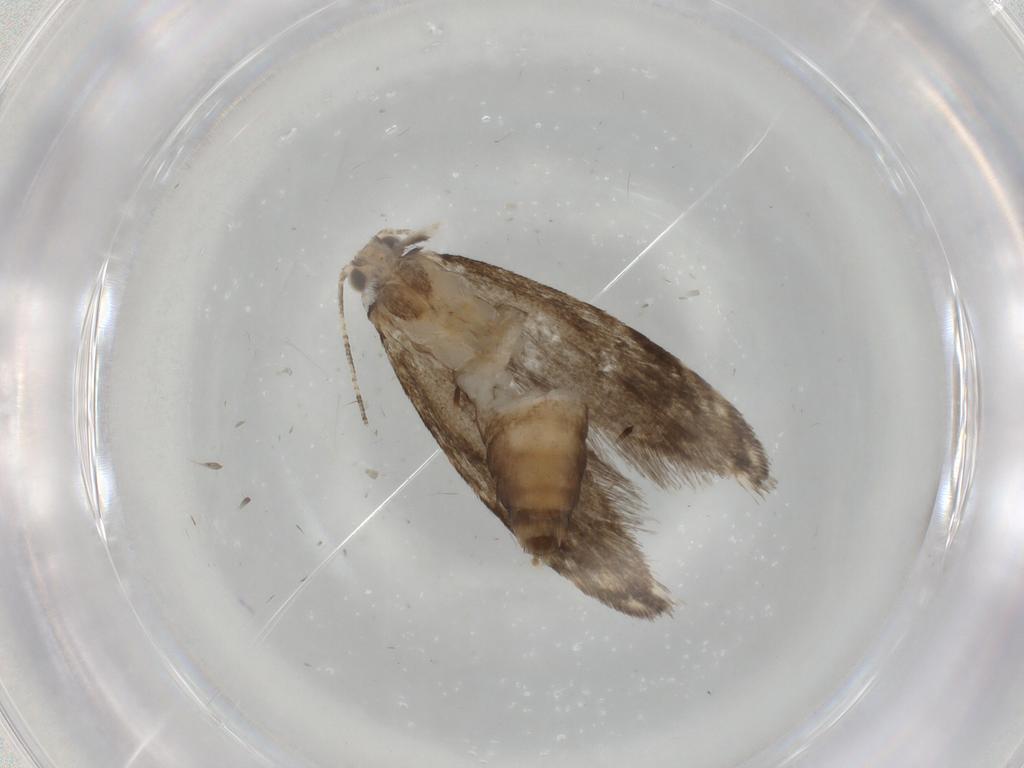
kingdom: Animalia
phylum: Arthropoda
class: Insecta
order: Lepidoptera
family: Tineidae
